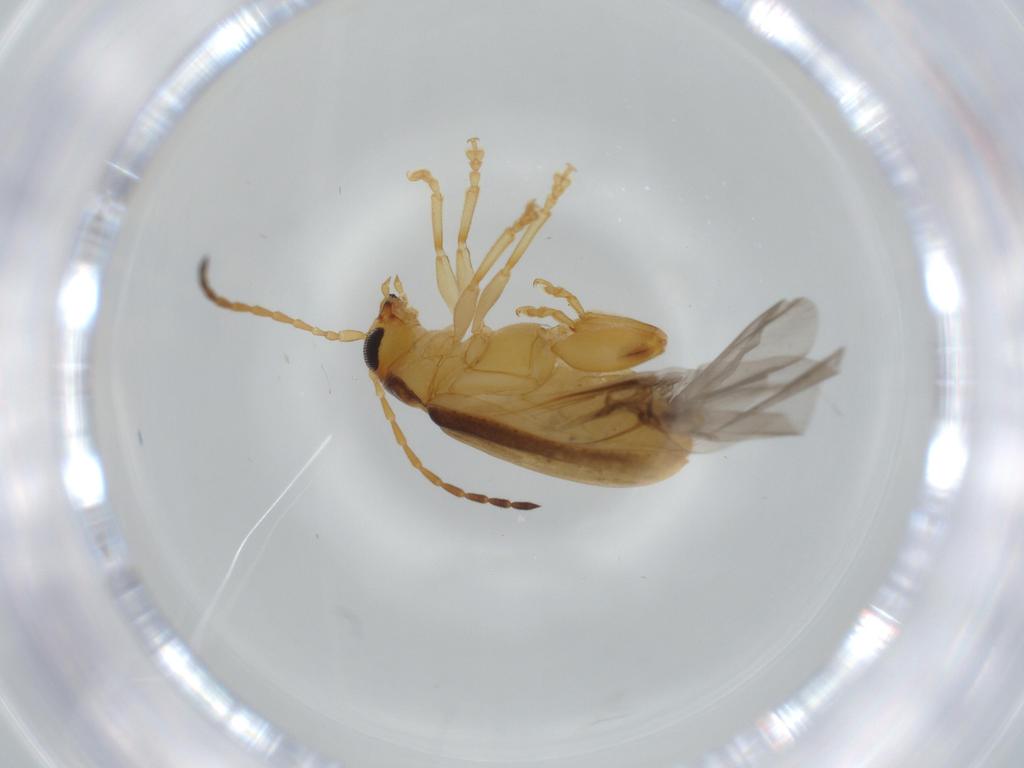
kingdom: Animalia
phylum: Arthropoda
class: Insecta
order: Coleoptera
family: Chrysomelidae
